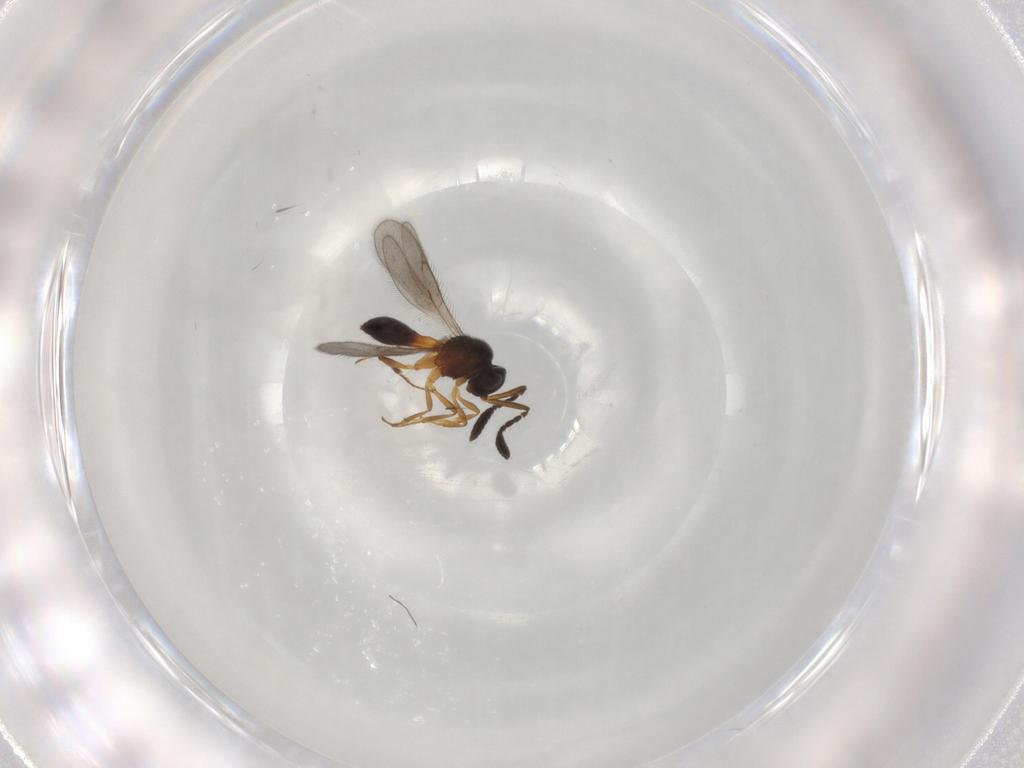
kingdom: Animalia
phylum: Arthropoda
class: Insecta
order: Hymenoptera
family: Scelionidae
